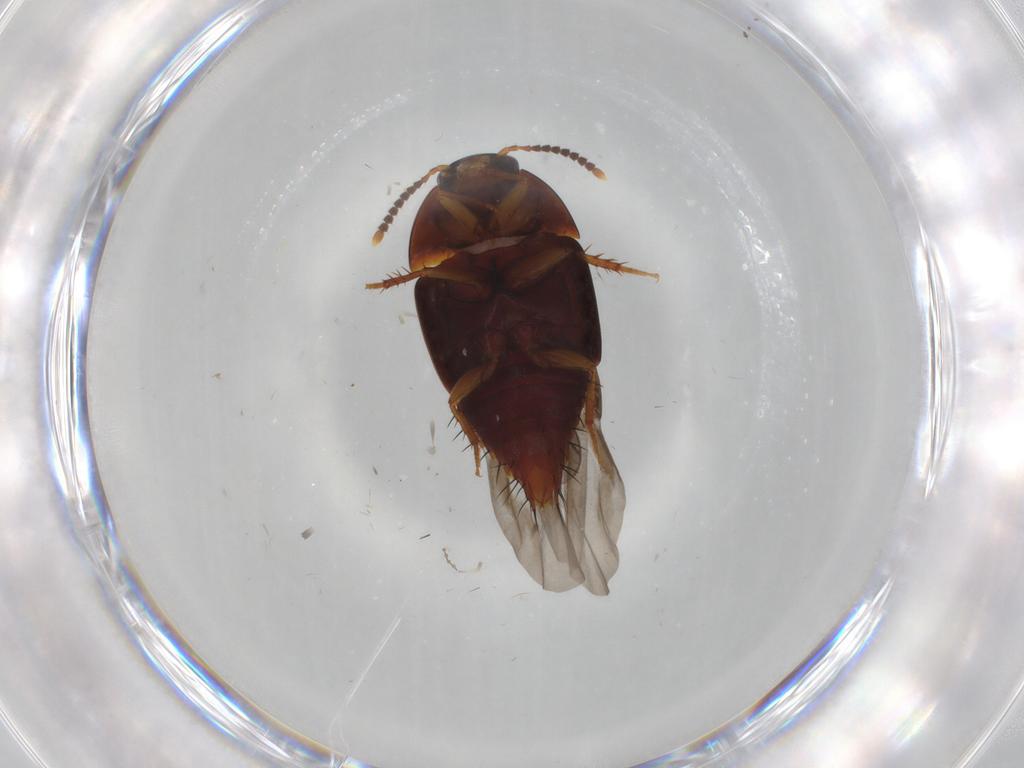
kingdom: Animalia
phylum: Arthropoda
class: Insecta
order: Coleoptera
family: Staphylinidae
